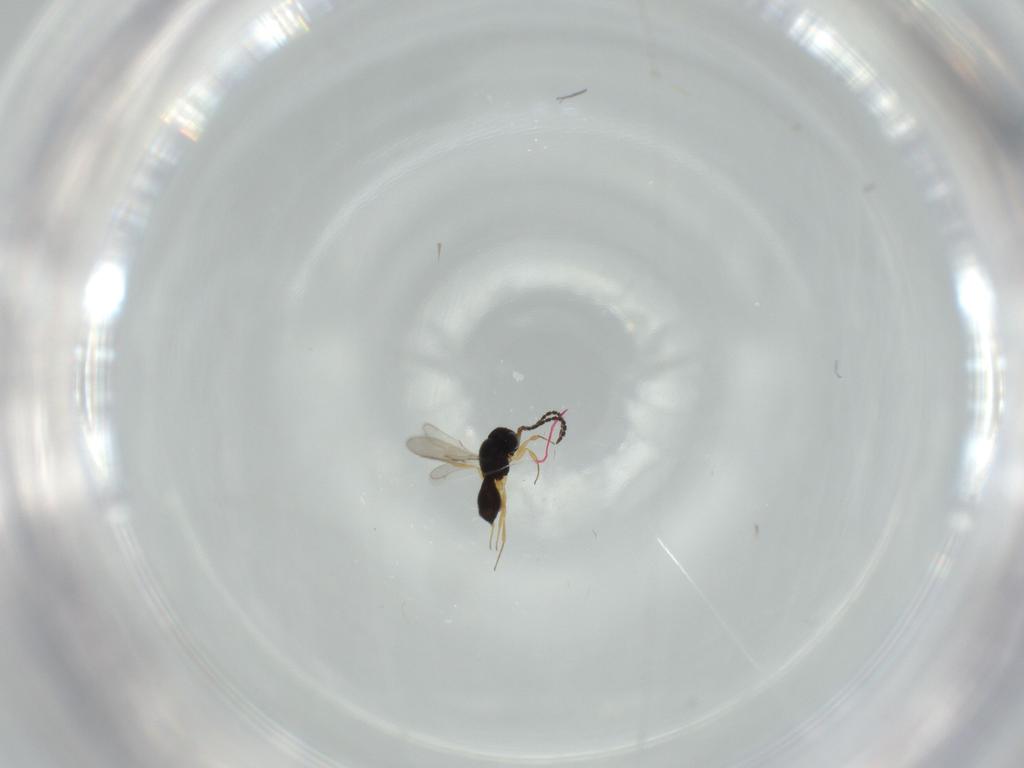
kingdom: Animalia
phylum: Arthropoda
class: Insecta
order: Hymenoptera
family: Scelionidae
